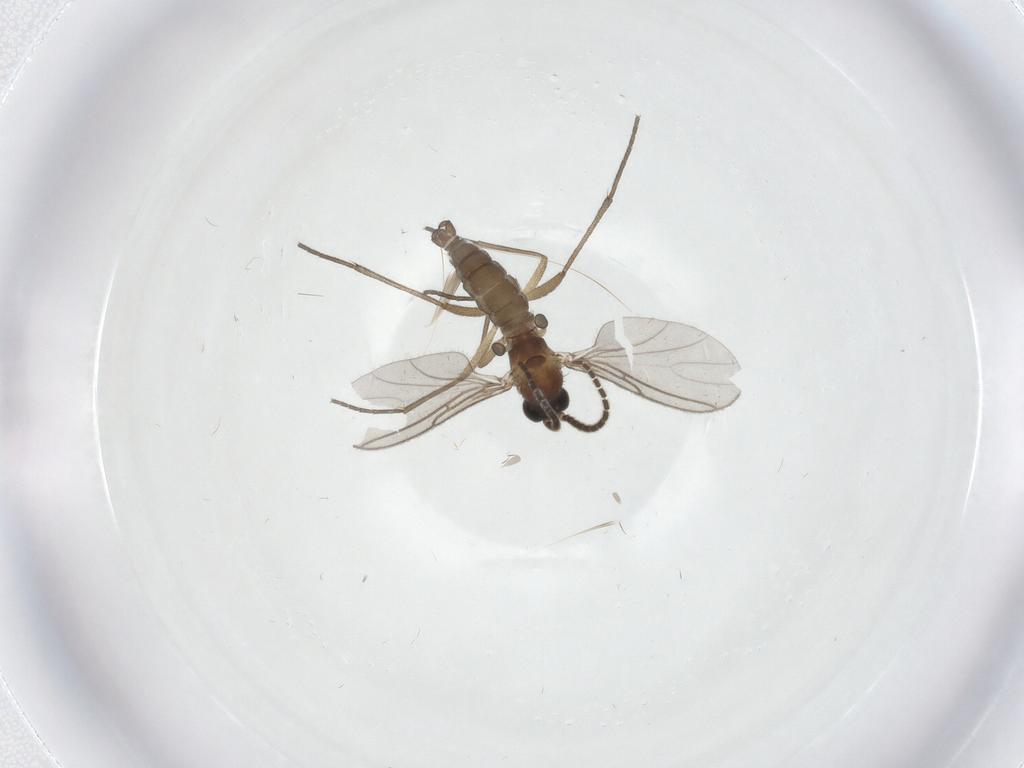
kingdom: Animalia
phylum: Arthropoda
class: Insecta
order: Diptera
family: Sciaridae
